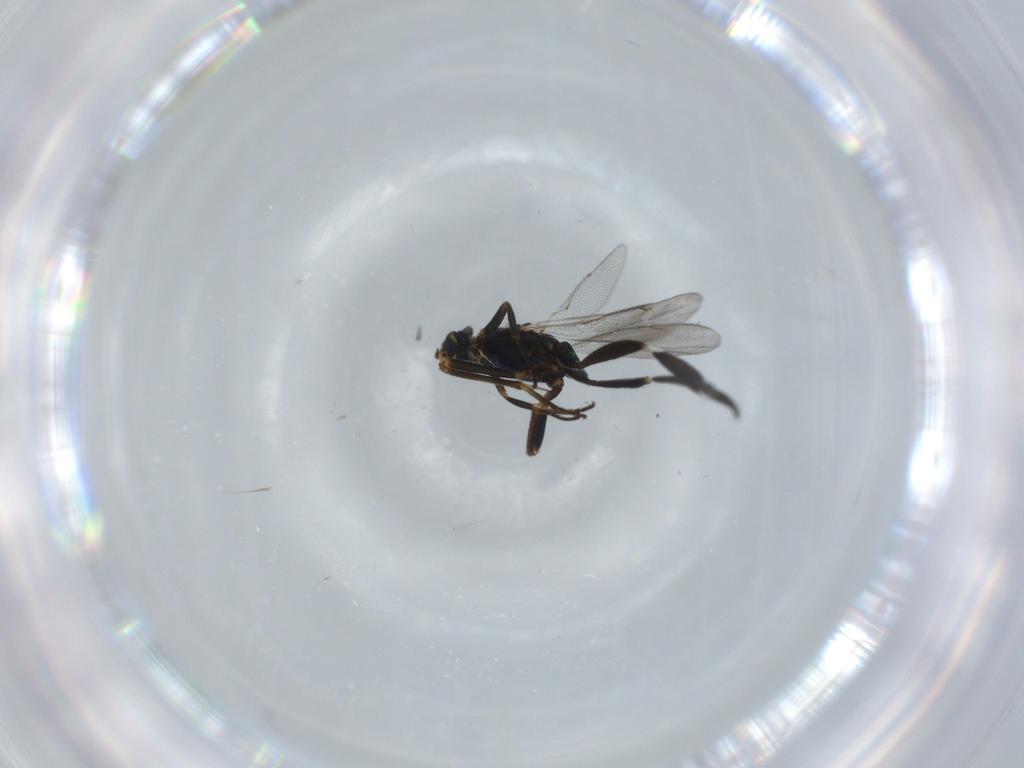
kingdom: Animalia
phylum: Arthropoda
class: Insecta
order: Hymenoptera
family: Eupelmidae
